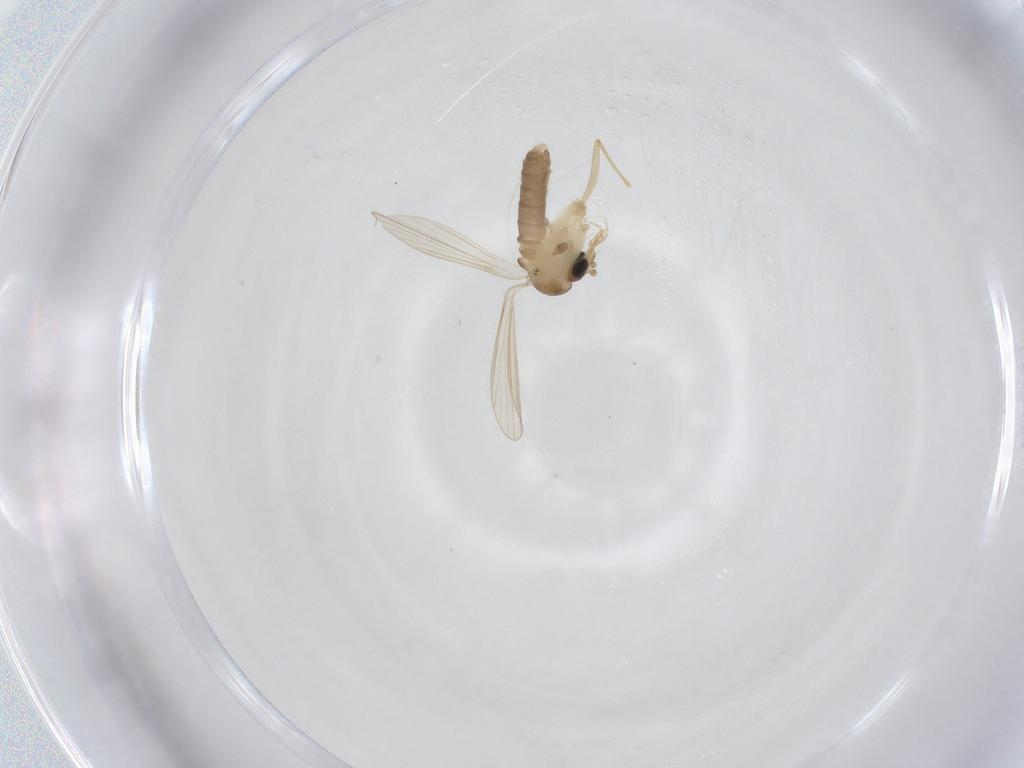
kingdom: Animalia
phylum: Arthropoda
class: Insecta
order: Diptera
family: Psychodidae
